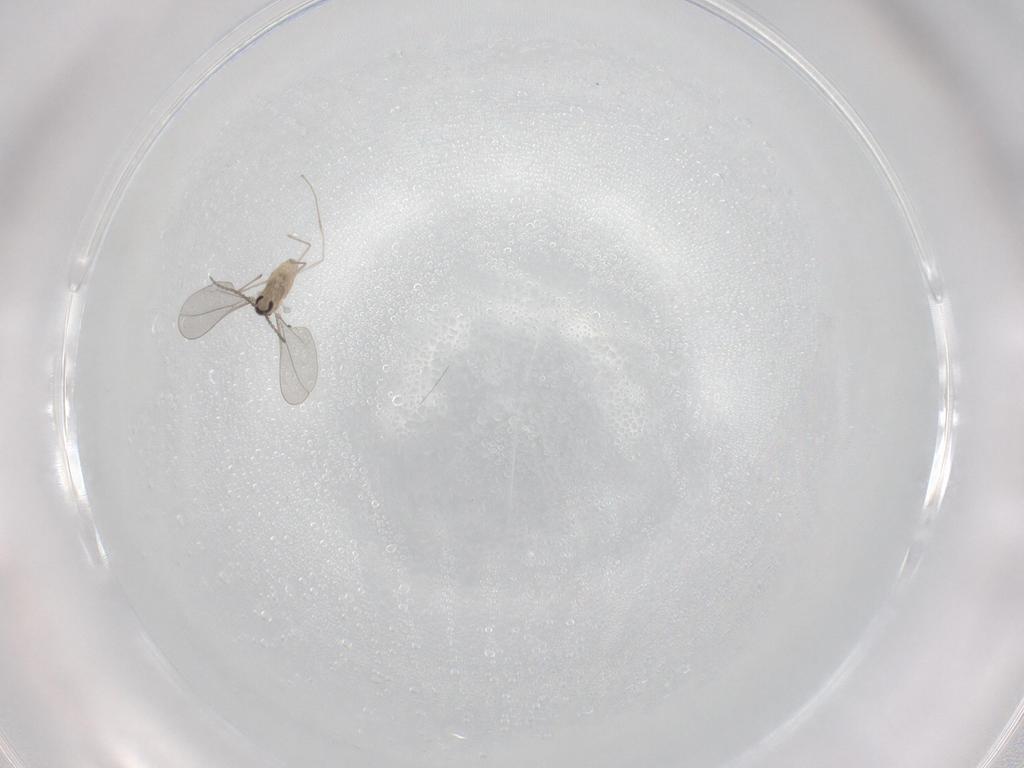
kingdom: Animalia
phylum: Arthropoda
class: Insecta
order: Diptera
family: Cecidomyiidae
